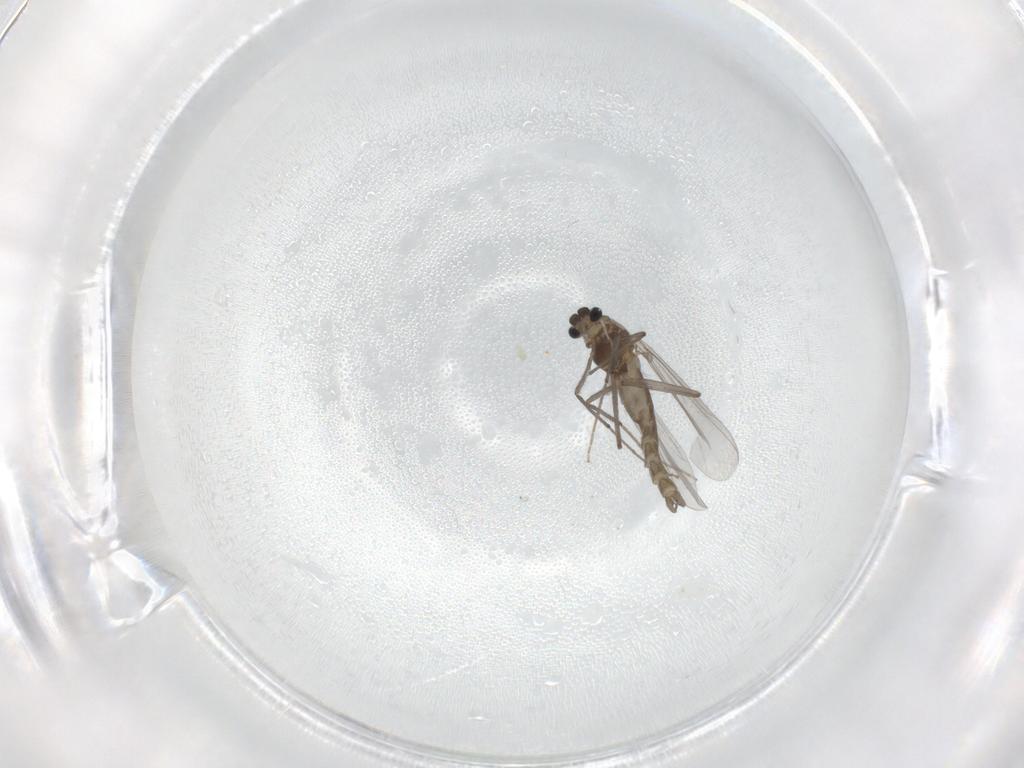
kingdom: Animalia
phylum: Arthropoda
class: Insecta
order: Diptera
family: Chironomidae
